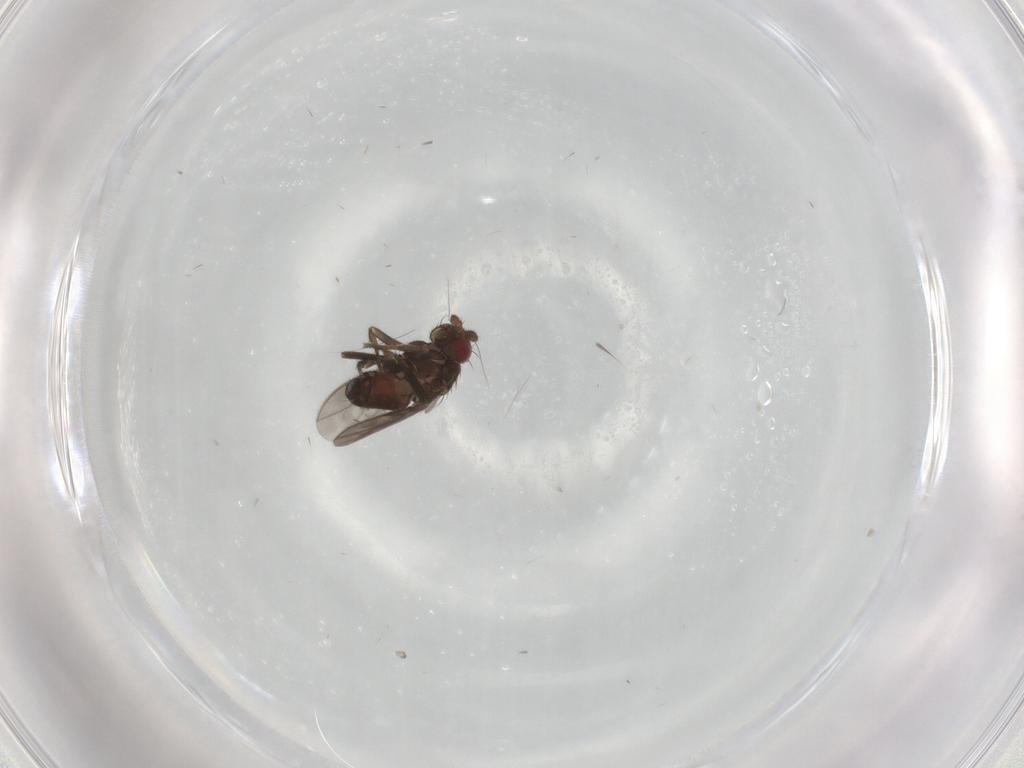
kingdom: Animalia
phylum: Arthropoda
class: Insecta
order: Diptera
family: Sphaeroceridae
